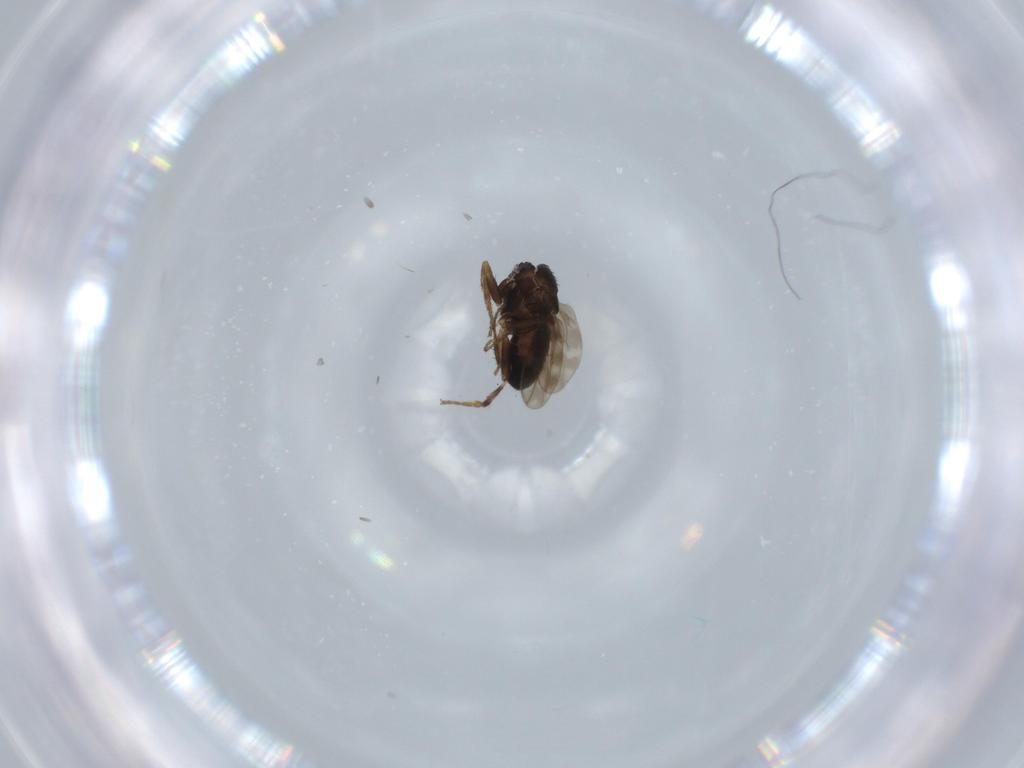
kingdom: Animalia
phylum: Arthropoda
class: Insecta
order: Diptera
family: Sphaeroceridae
